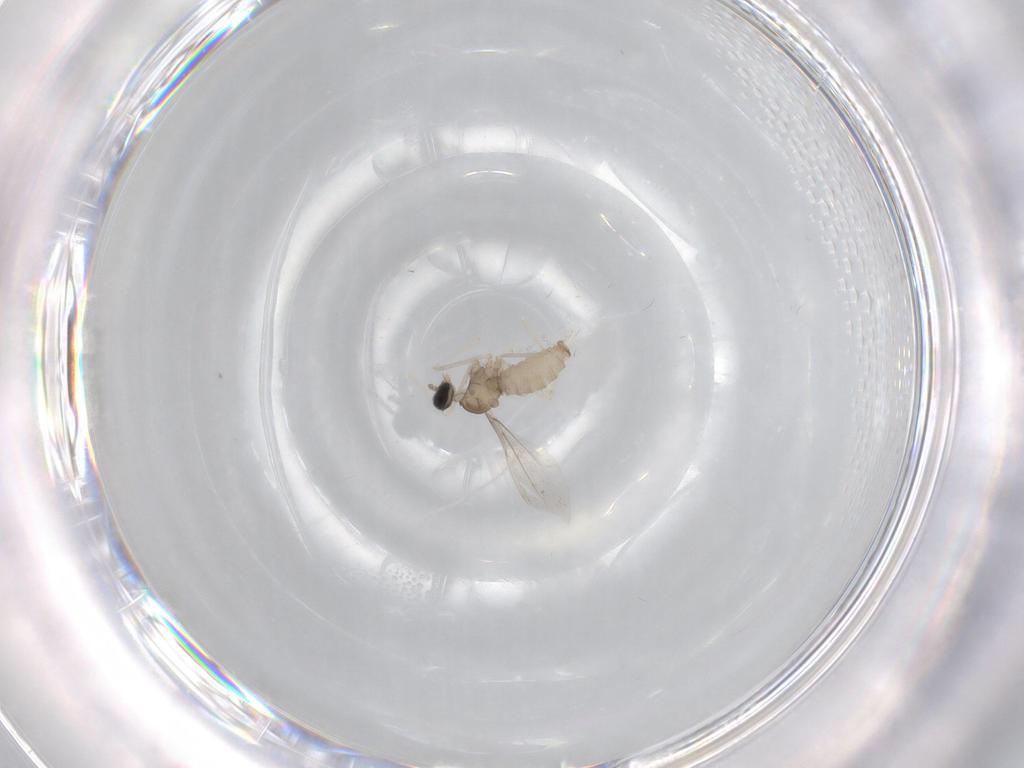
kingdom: Animalia
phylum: Arthropoda
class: Insecta
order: Diptera
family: Cecidomyiidae
